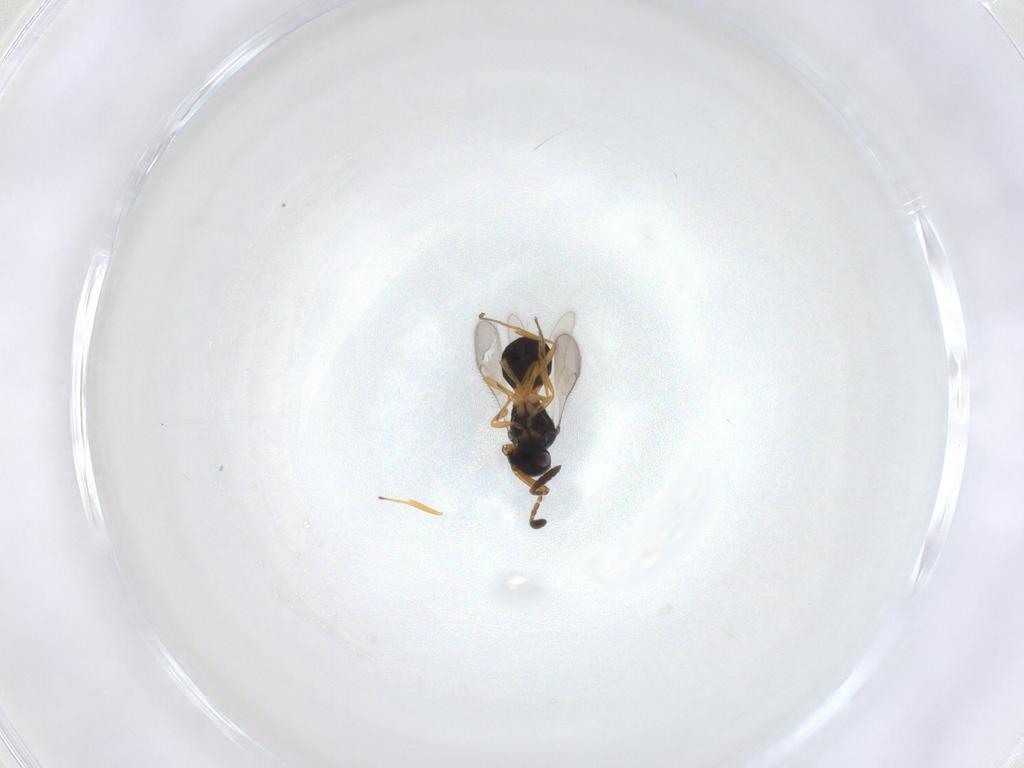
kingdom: Animalia
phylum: Arthropoda
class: Insecta
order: Hymenoptera
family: Scelionidae
